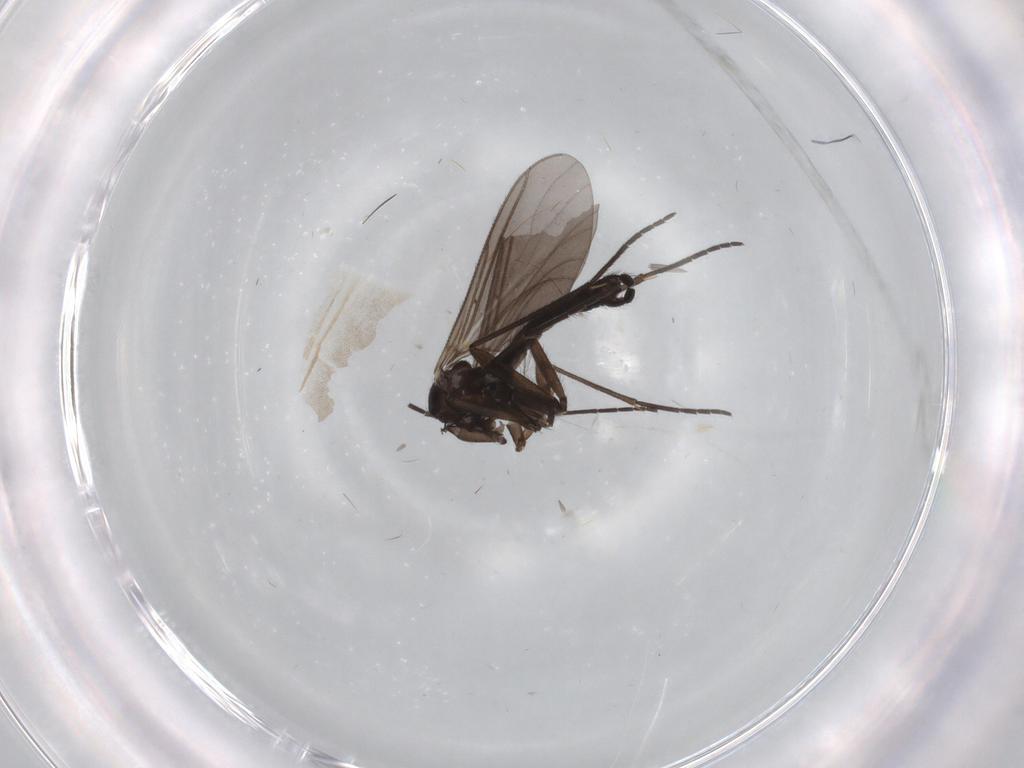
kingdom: Animalia
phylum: Arthropoda
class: Insecta
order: Diptera
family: Sciaridae
